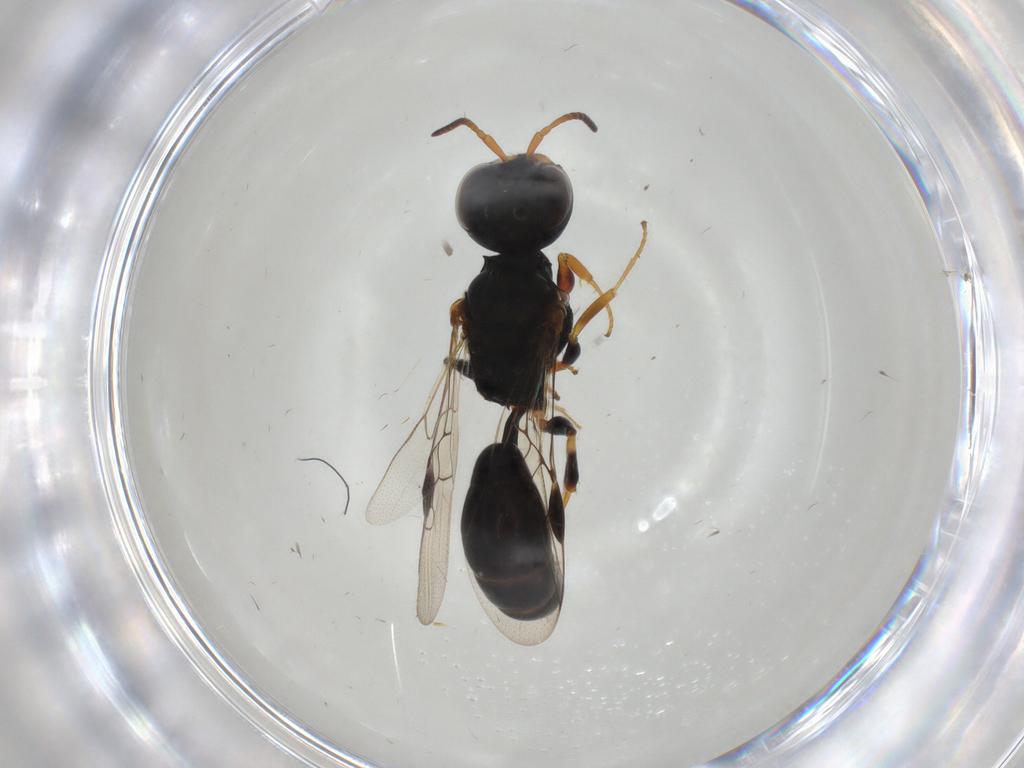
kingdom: Animalia
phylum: Arthropoda
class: Insecta
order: Hymenoptera
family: Pemphredonidae
